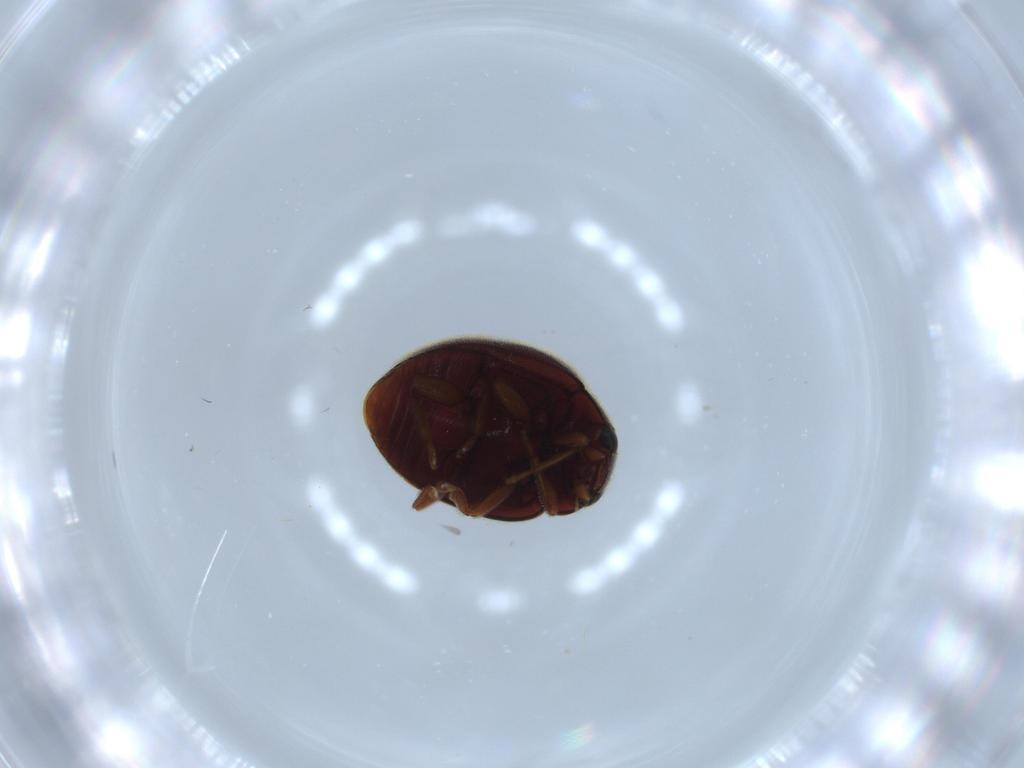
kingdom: Animalia
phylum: Arthropoda
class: Insecta
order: Coleoptera
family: Coccinellidae
